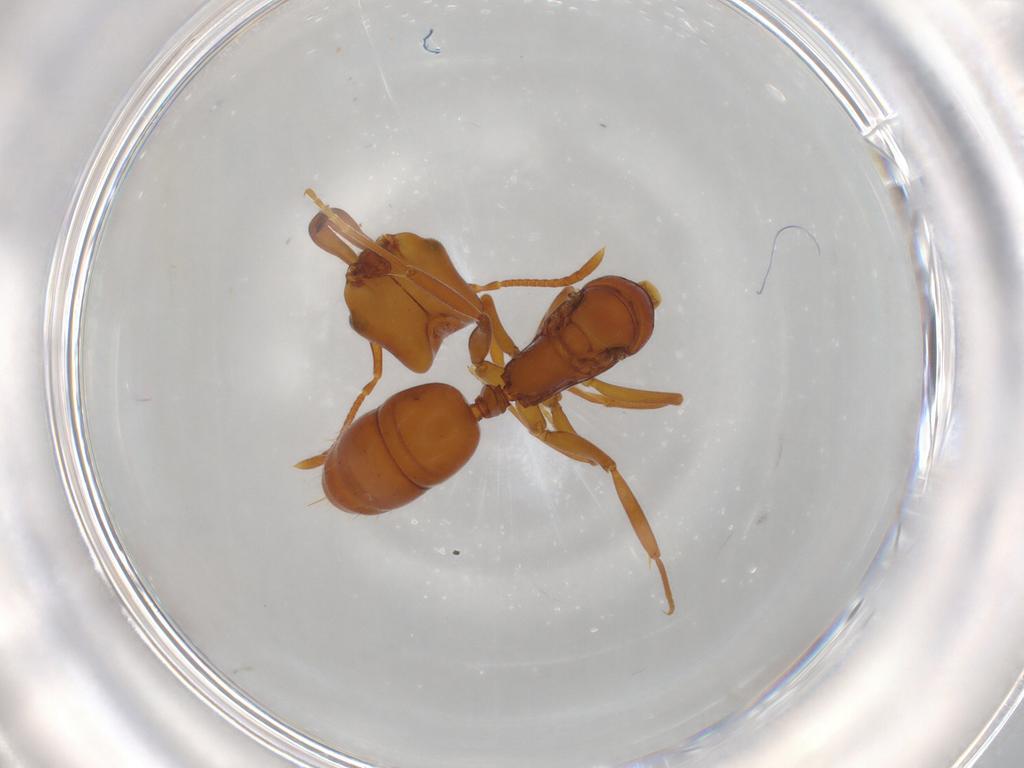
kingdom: Animalia
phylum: Arthropoda
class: Insecta
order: Hymenoptera
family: Formicidae
